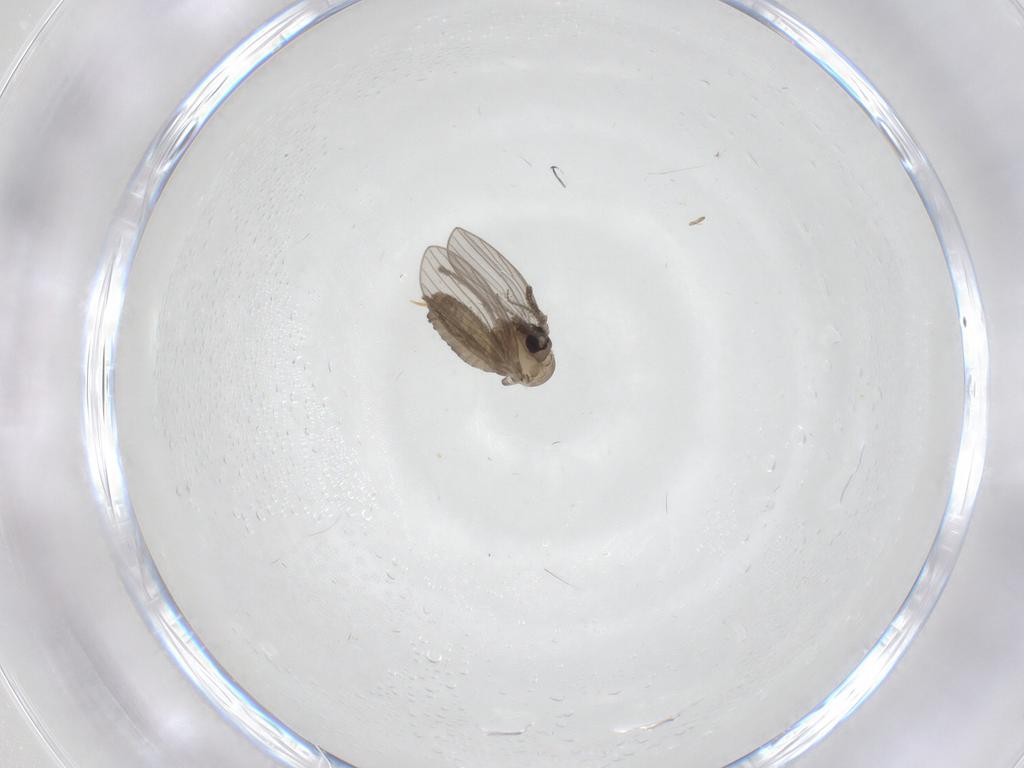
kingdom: Animalia
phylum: Arthropoda
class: Insecta
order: Diptera
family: Psychodidae
